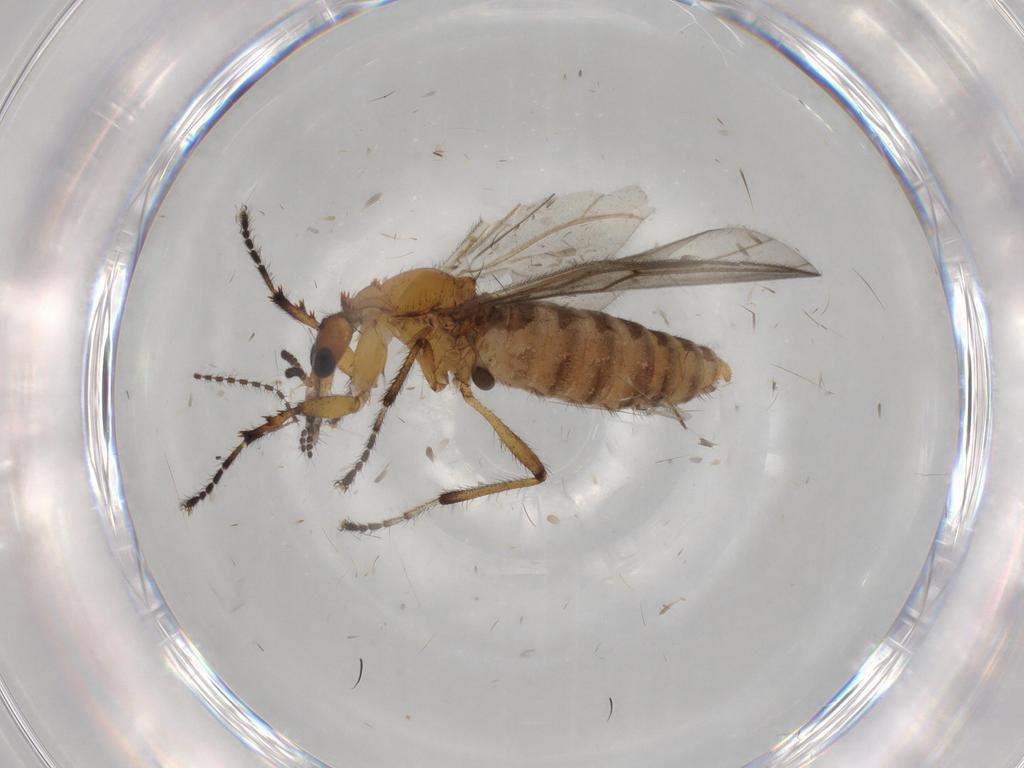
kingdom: Animalia
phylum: Arthropoda
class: Insecta
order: Diptera
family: Bibionidae
